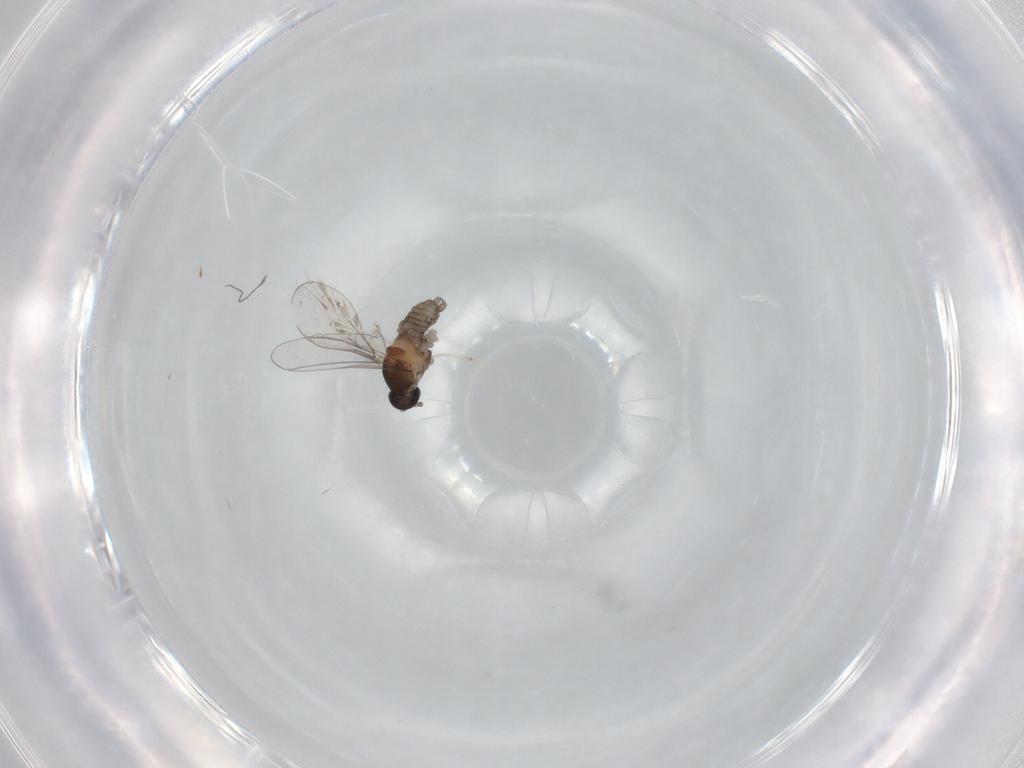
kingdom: Animalia
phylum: Arthropoda
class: Insecta
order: Diptera
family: Cecidomyiidae
